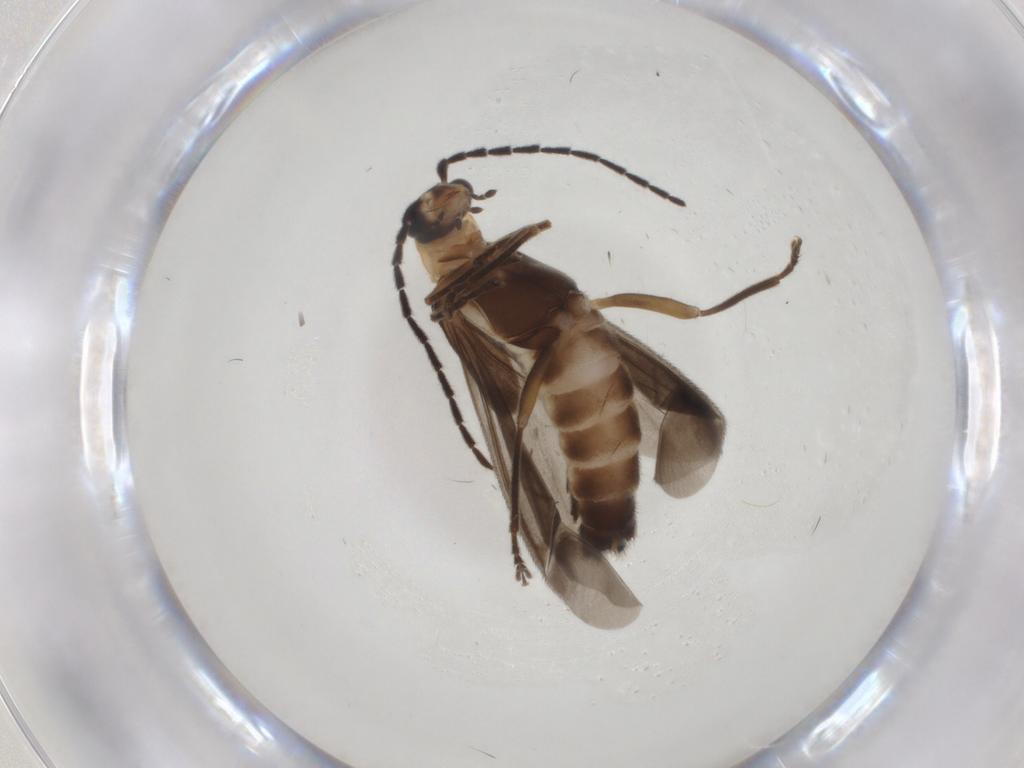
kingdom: Animalia
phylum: Arthropoda
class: Insecta
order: Coleoptera
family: Cantharidae
